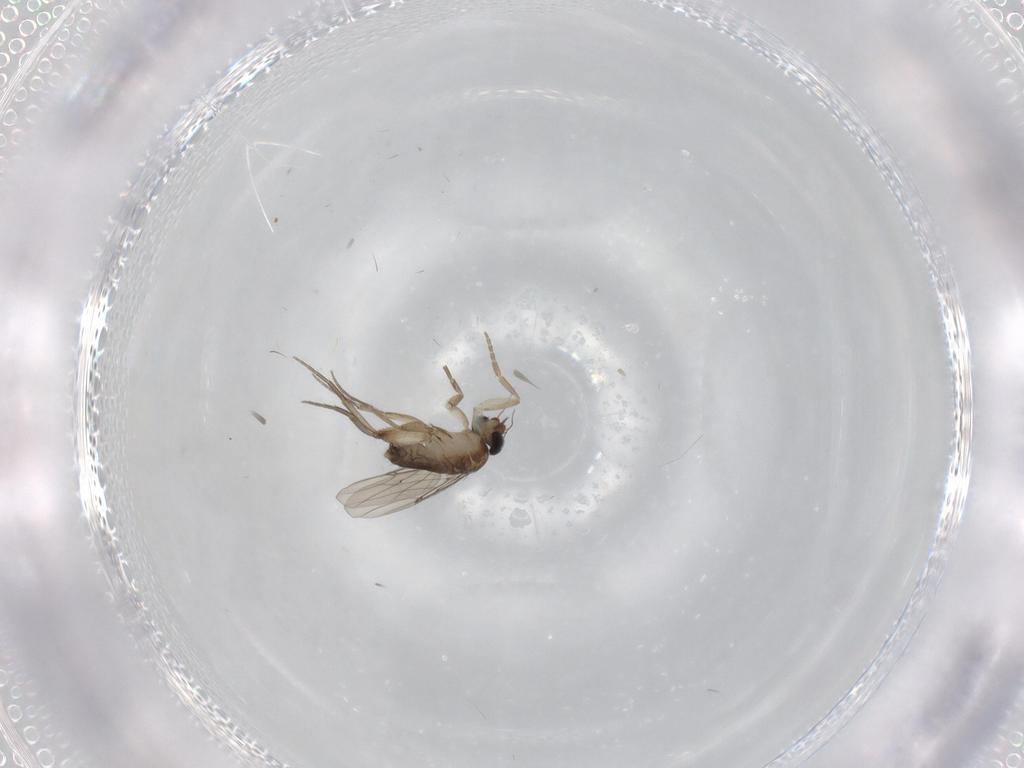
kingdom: Animalia
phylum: Arthropoda
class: Insecta
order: Diptera
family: Phoridae
